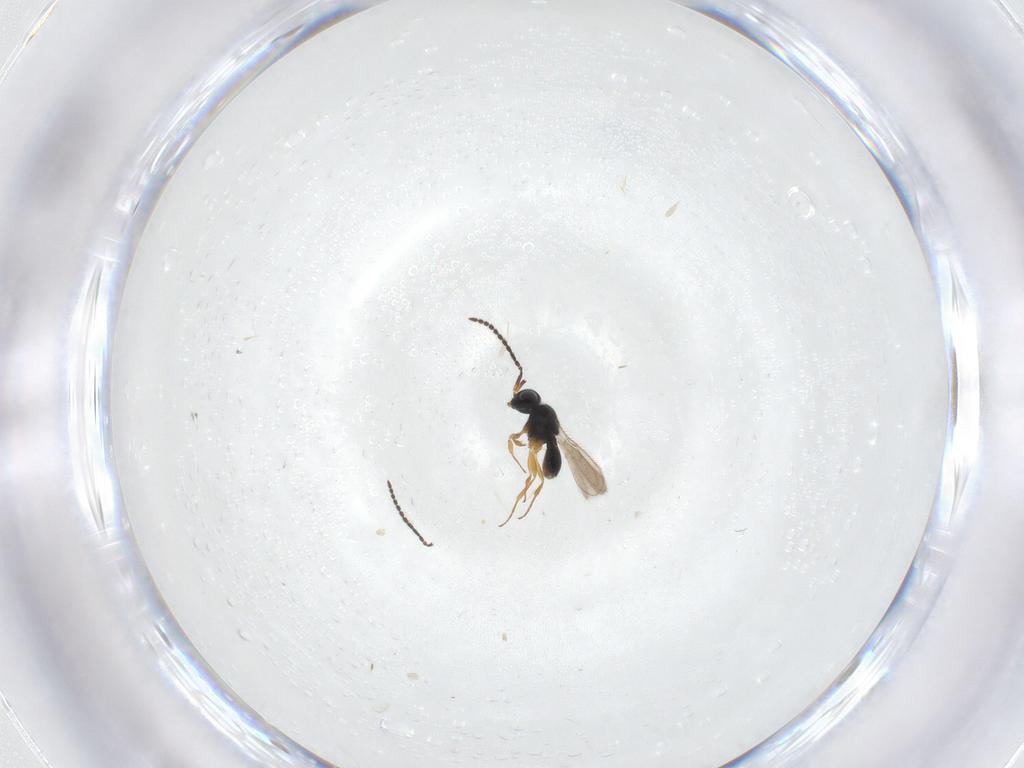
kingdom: Animalia
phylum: Arthropoda
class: Insecta
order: Hymenoptera
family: Scelionidae
